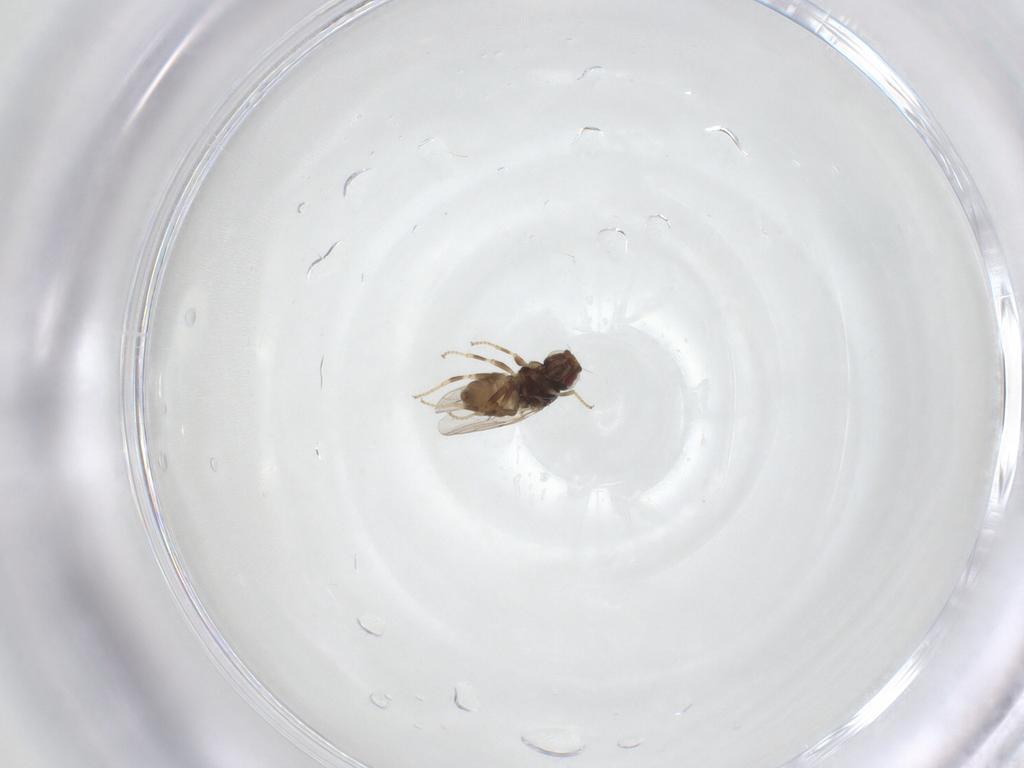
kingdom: Animalia
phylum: Arthropoda
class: Insecta
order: Diptera
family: Chloropidae
